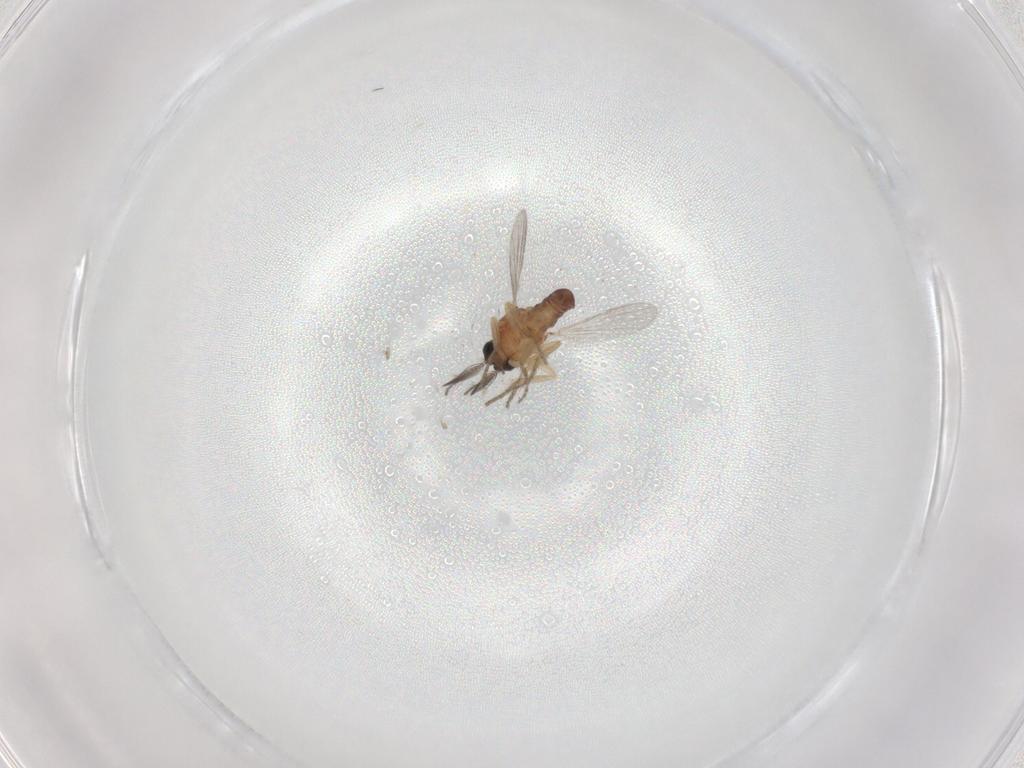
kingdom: Animalia
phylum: Arthropoda
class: Insecta
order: Diptera
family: Ceratopogonidae
